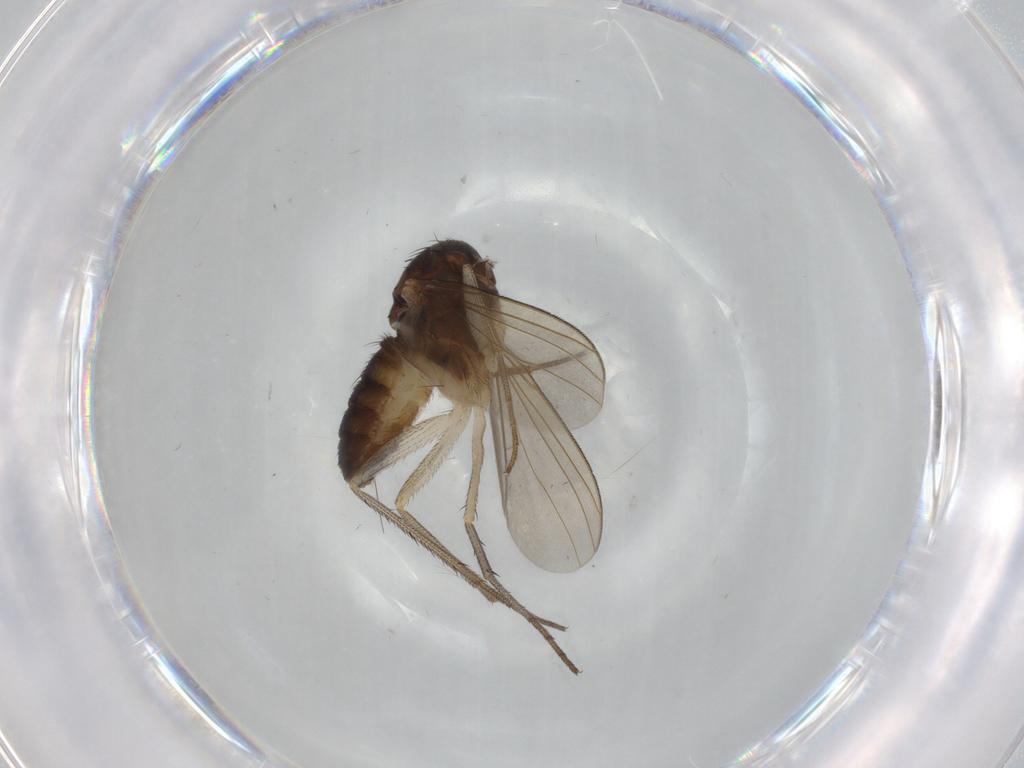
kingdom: Animalia
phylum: Arthropoda
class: Insecta
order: Diptera
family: Dolichopodidae
